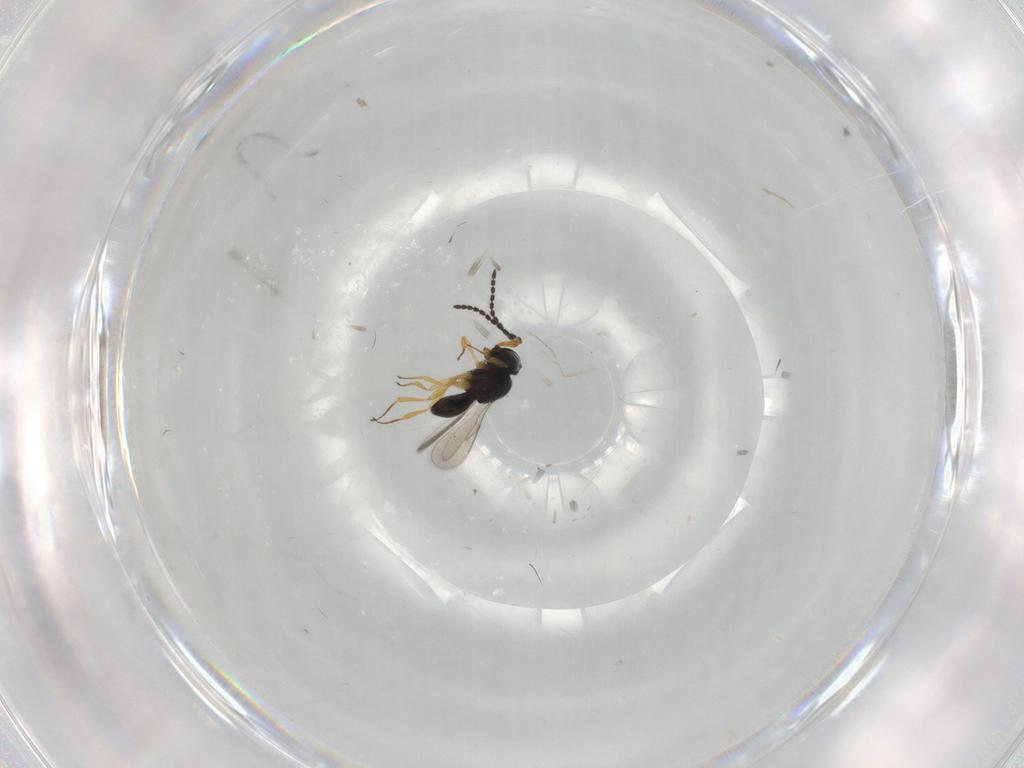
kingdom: Animalia
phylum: Arthropoda
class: Insecta
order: Hymenoptera
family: Scelionidae
